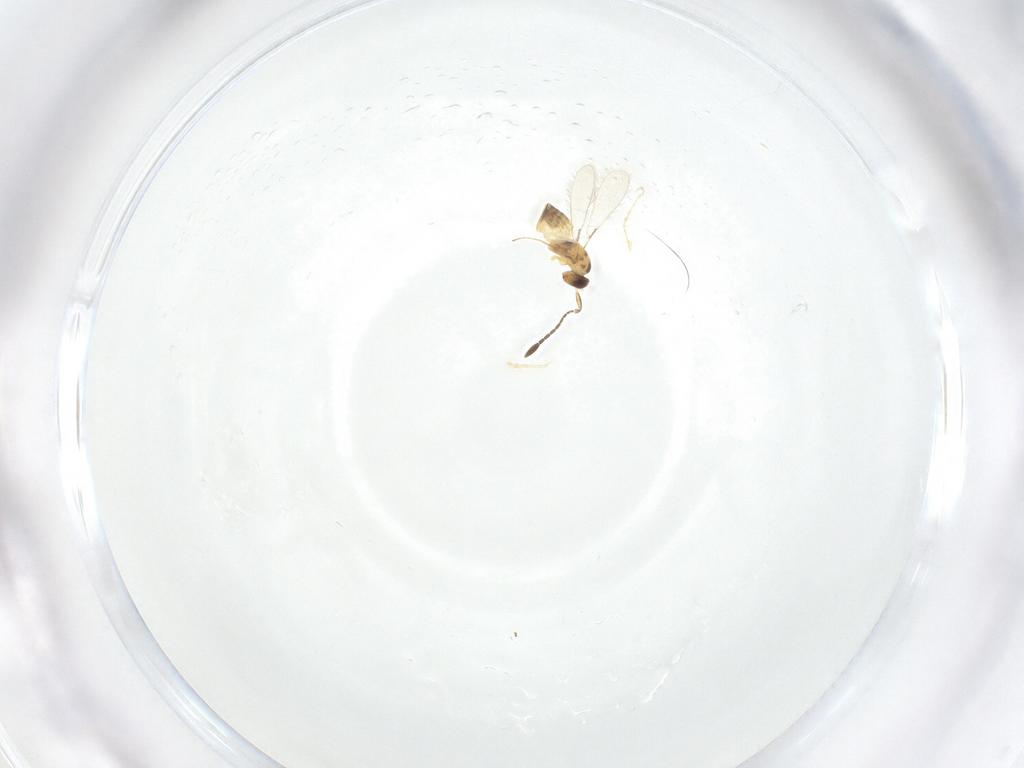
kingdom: Animalia
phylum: Arthropoda
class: Insecta
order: Hymenoptera
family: Mymaridae
